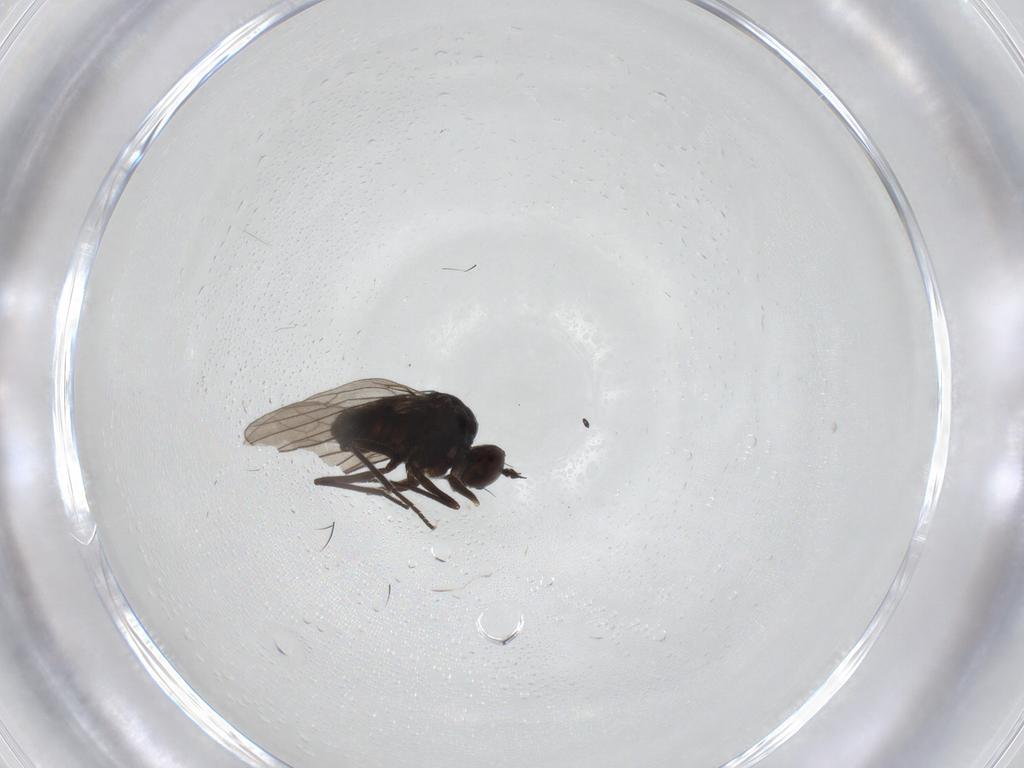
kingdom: Animalia
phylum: Arthropoda
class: Insecta
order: Diptera
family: Dolichopodidae
